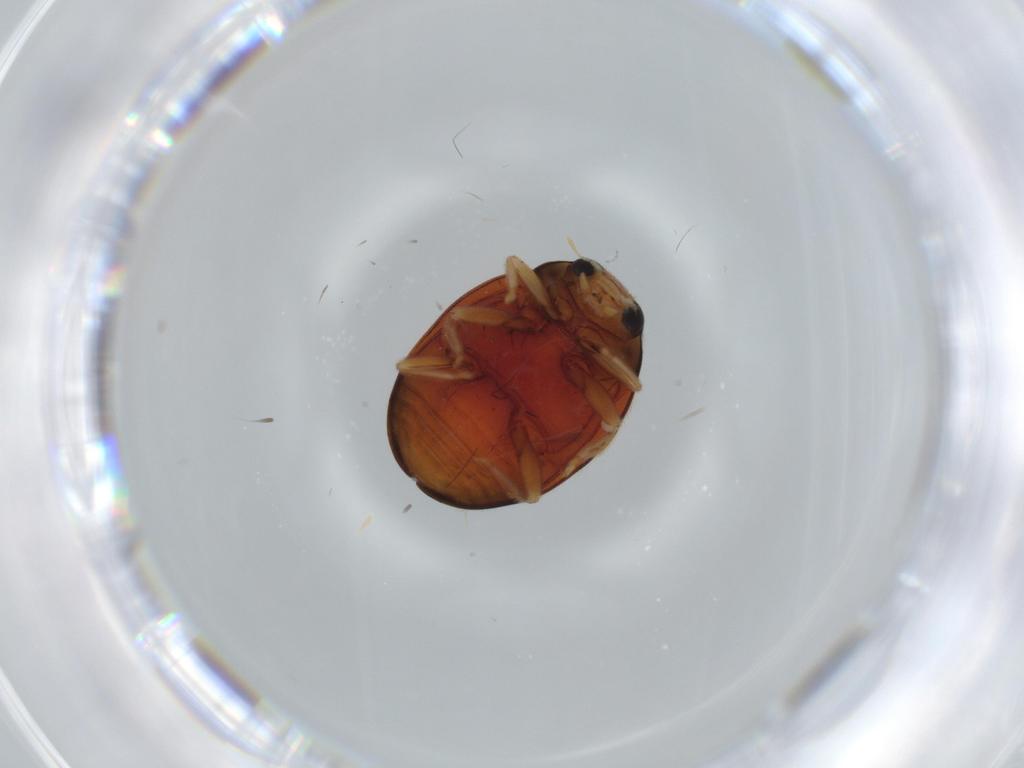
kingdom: Animalia
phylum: Arthropoda
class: Insecta
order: Coleoptera
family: Coccinellidae
